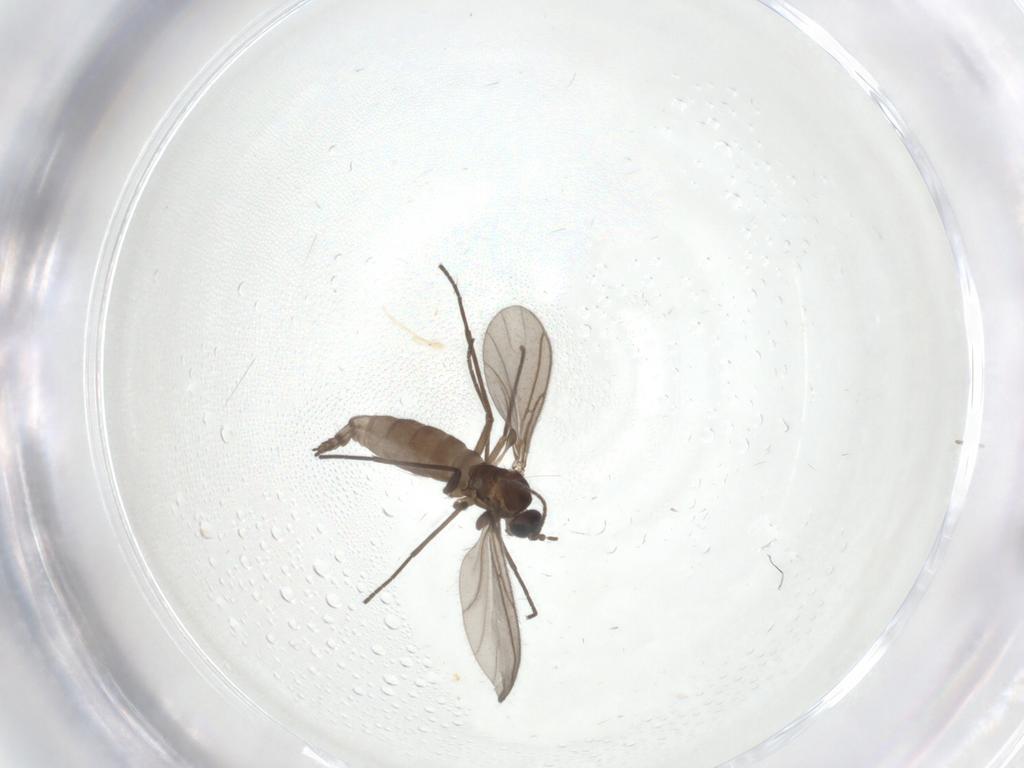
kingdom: Animalia
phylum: Arthropoda
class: Insecta
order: Diptera
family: Sciaridae
